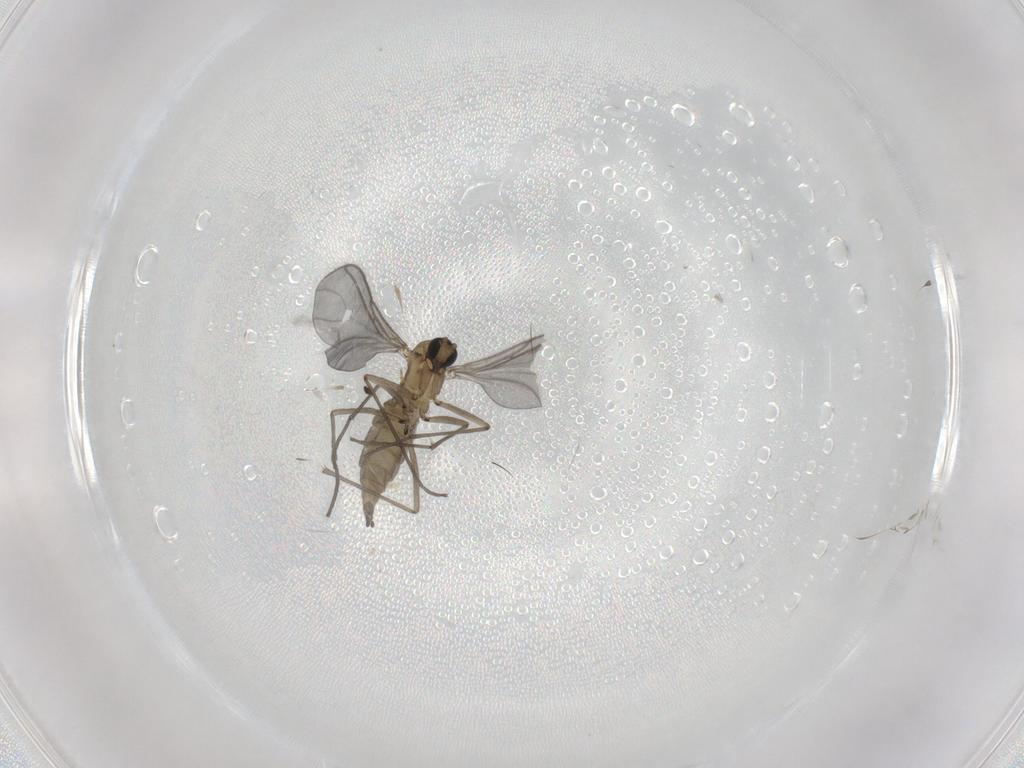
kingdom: Animalia
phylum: Arthropoda
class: Insecta
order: Diptera
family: Sciaridae
